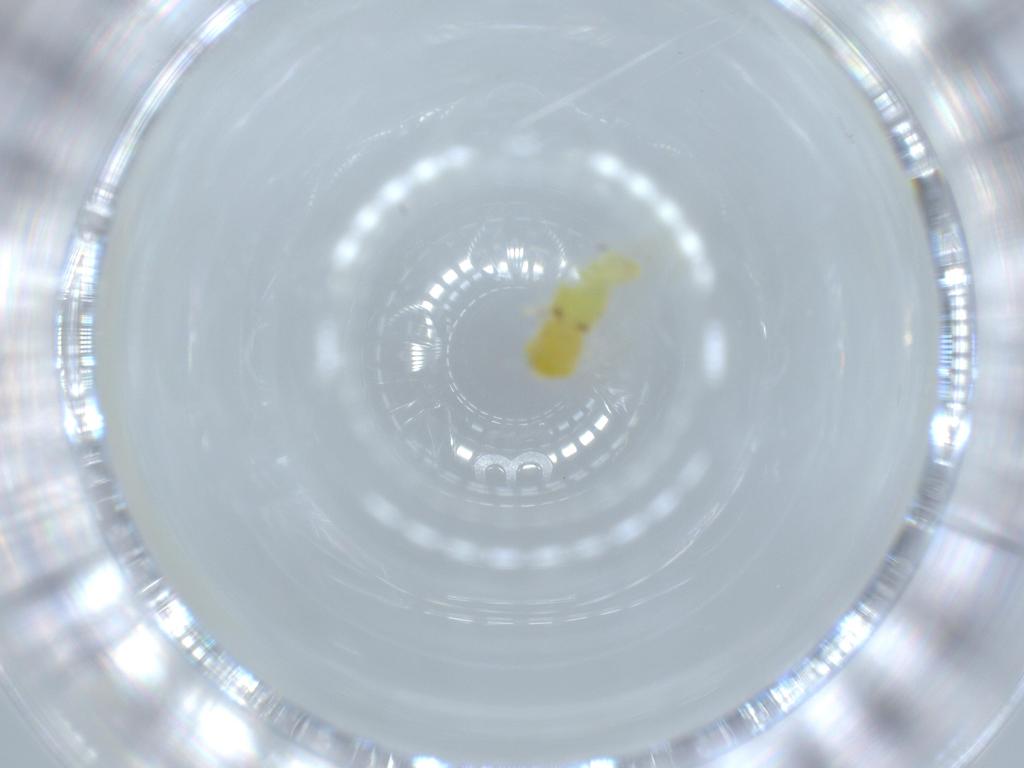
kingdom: Animalia
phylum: Arthropoda
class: Insecta
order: Hemiptera
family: Aleyrodidae
